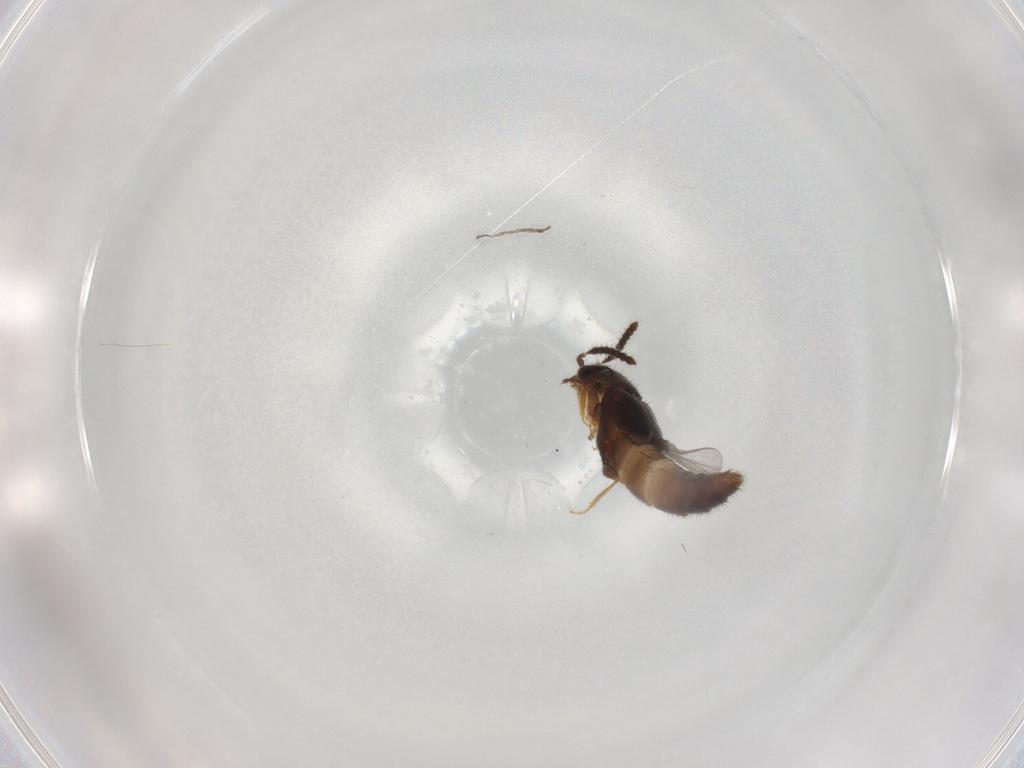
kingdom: Animalia
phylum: Arthropoda
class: Insecta
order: Coleoptera
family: Staphylinidae
